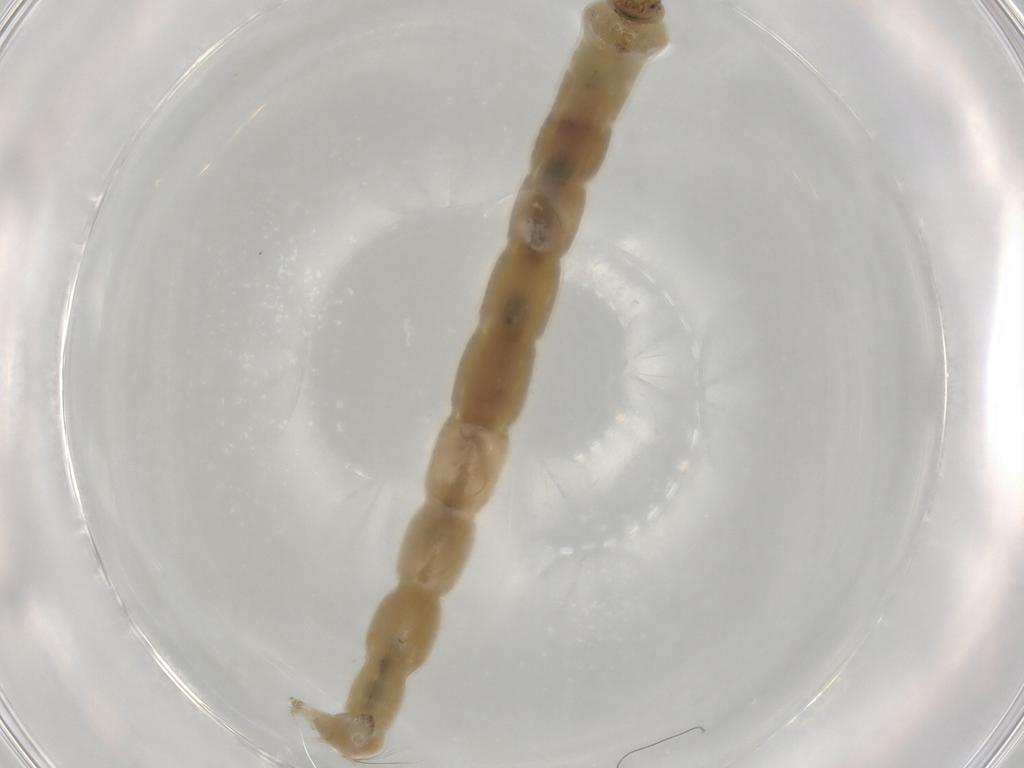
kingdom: Animalia
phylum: Arthropoda
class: Insecta
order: Diptera
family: Chironomidae
